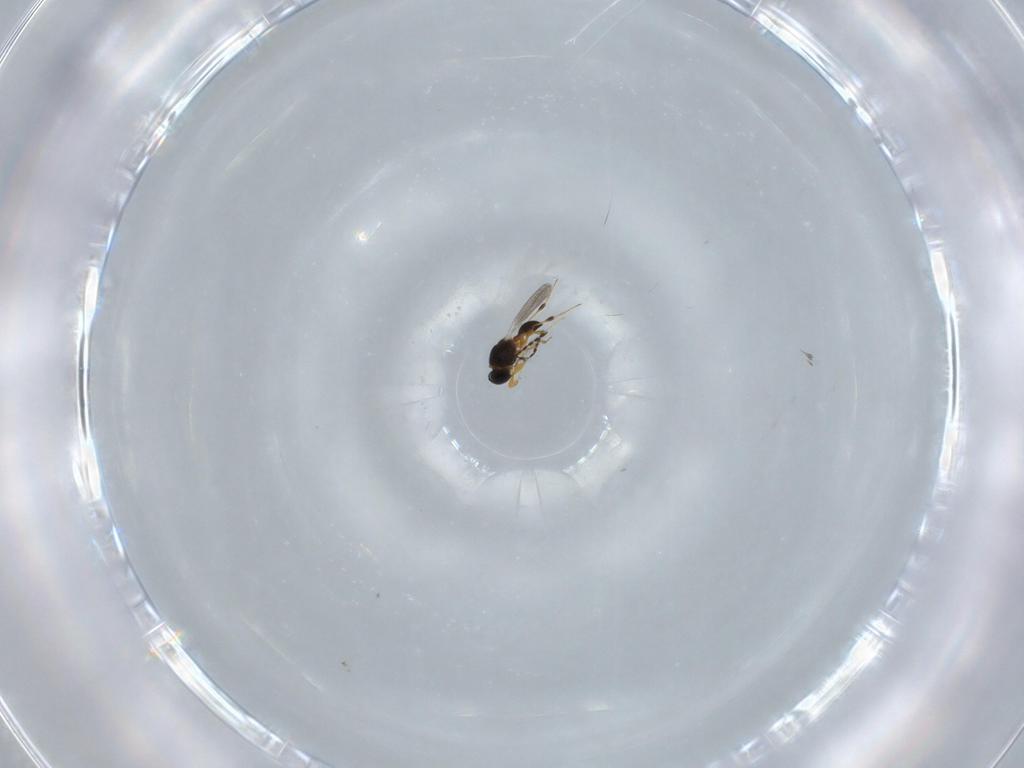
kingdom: Animalia
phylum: Arthropoda
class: Insecta
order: Hymenoptera
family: Platygastridae
